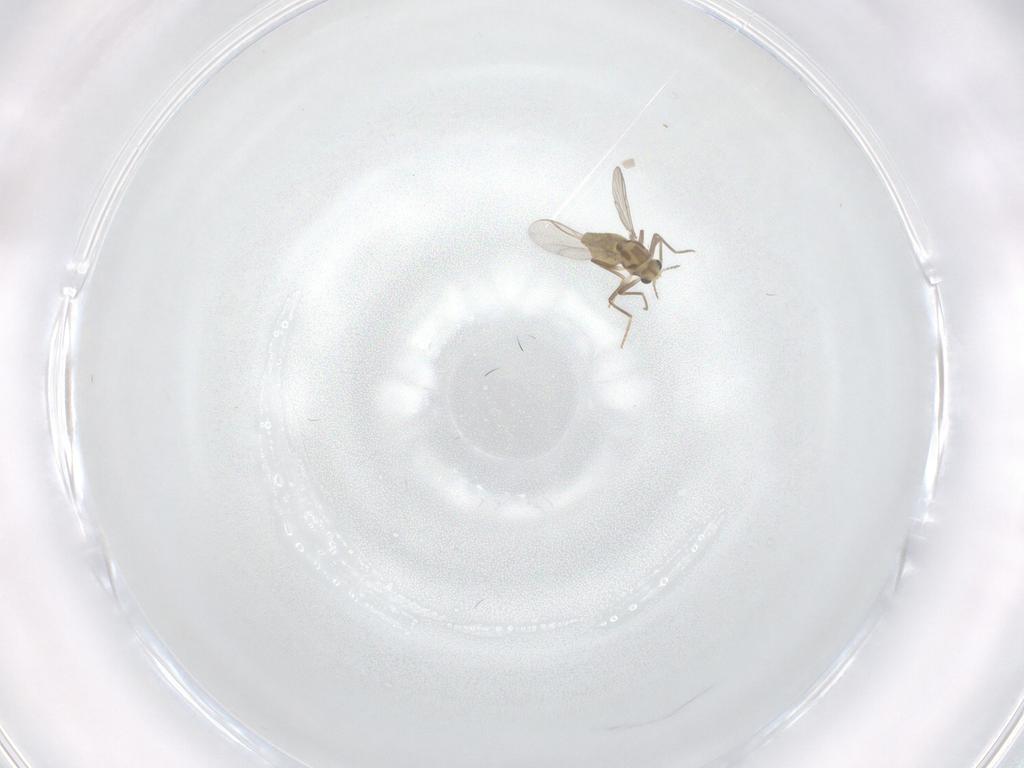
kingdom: Animalia
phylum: Arthropoda
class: Insecta
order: Diptera
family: Chironomidae
